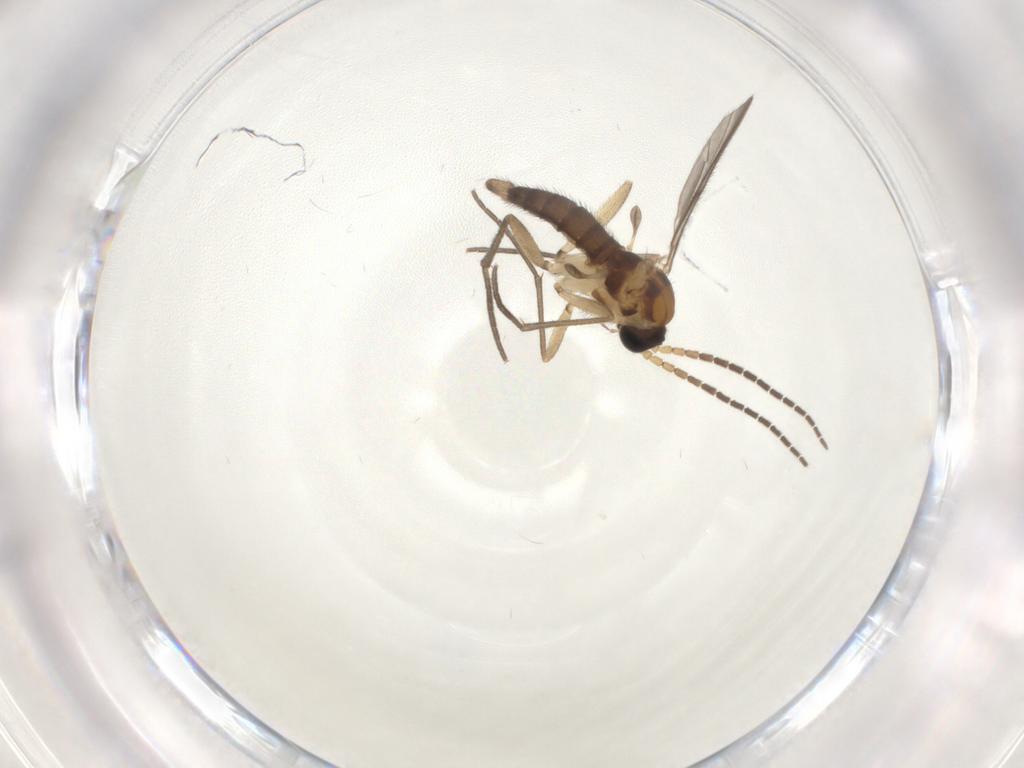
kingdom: Animalia
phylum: Arthropoda
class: Insecta
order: Diptera
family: Sciaridae
